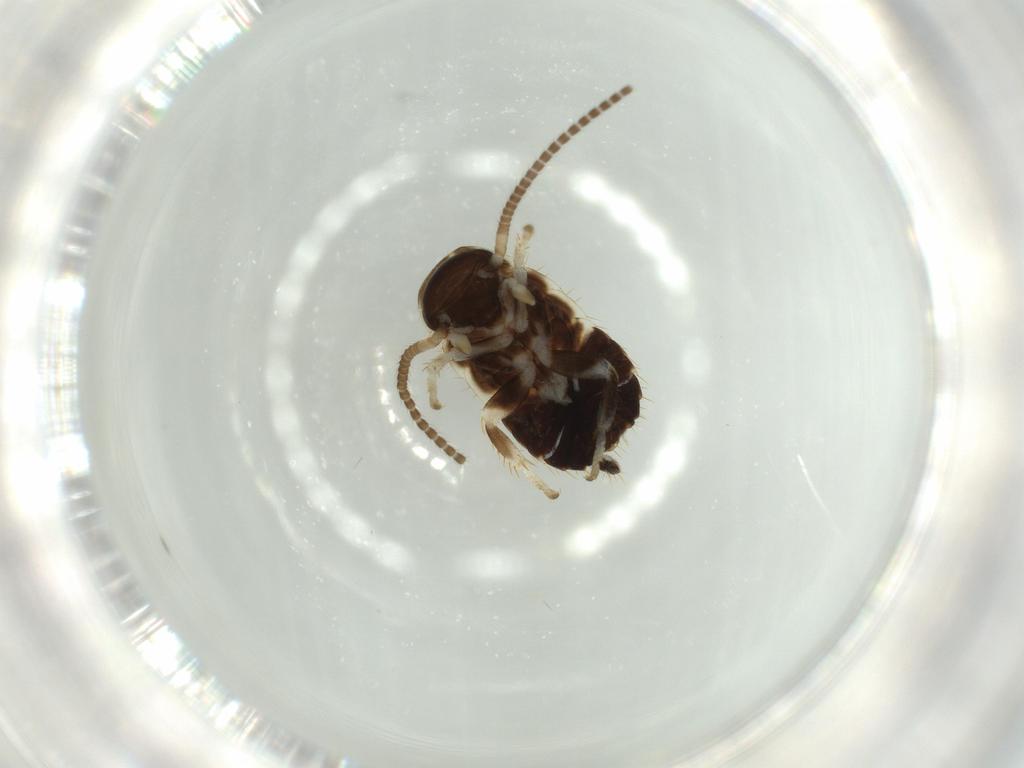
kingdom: Animalia
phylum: Arthropoda
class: Insecta
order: Blattodea
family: Ectobiidae
